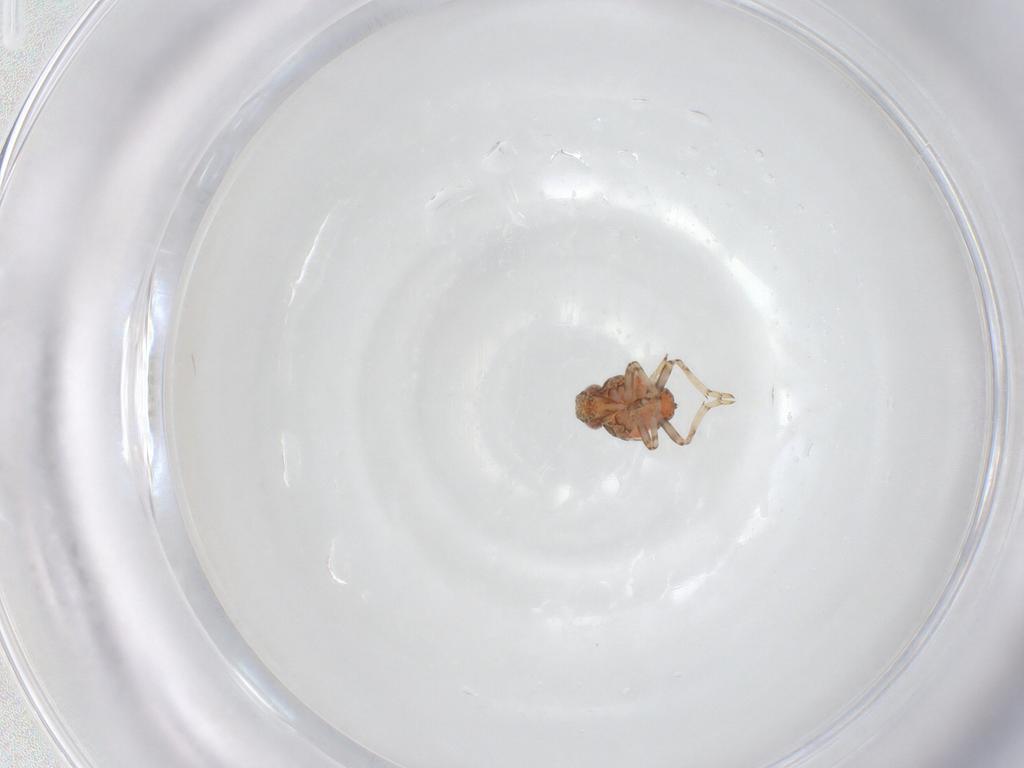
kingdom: Animalia
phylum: Arthropoda
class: Insecta
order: Hemiptera
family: Issidae
